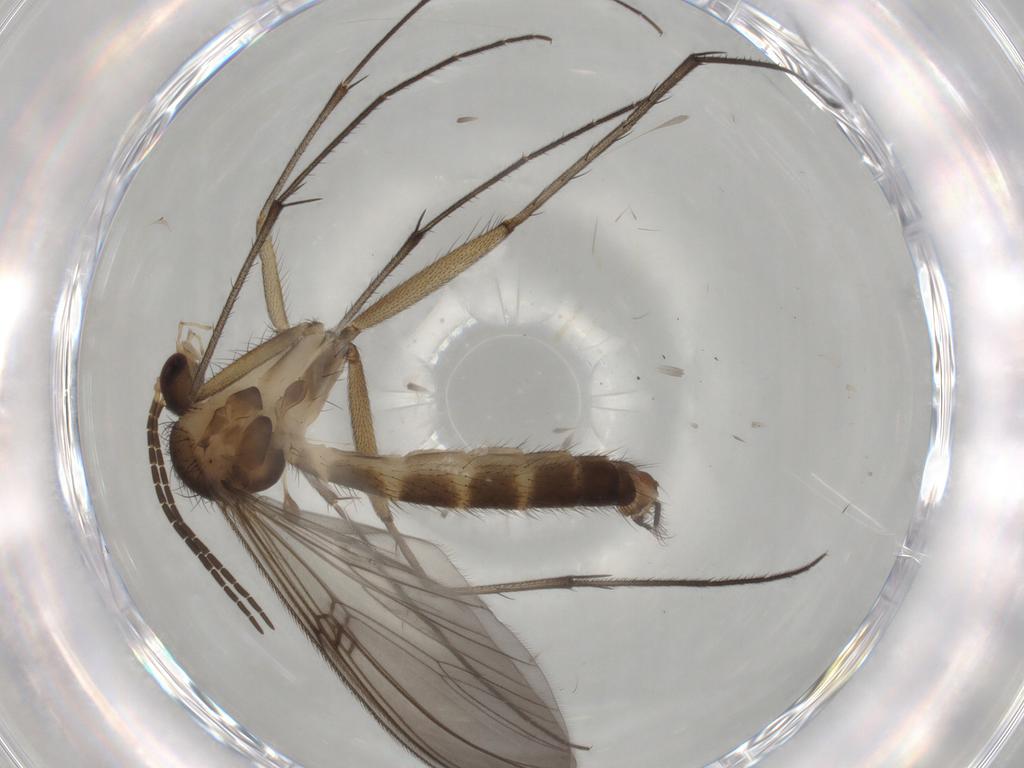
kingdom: Animalia
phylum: Arthropoda
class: Insecta
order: Diptera
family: Mycetophilidae
